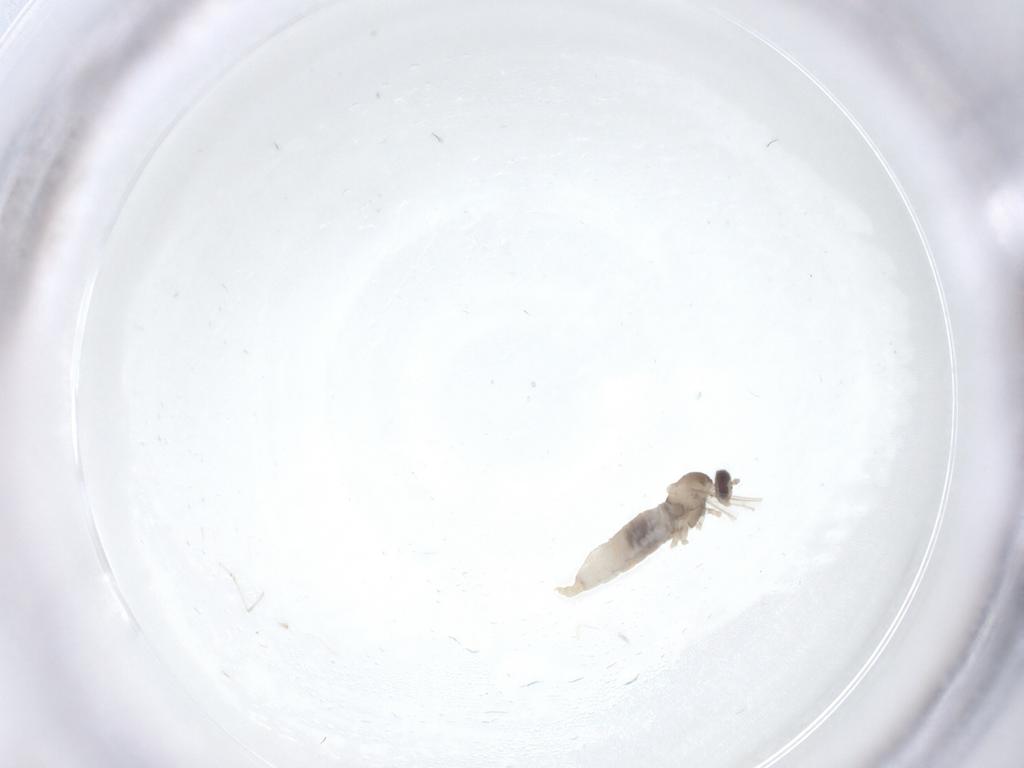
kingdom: Animalia
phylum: Arthropoda
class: Insecta
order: Diptera
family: Cecidomyiidae
